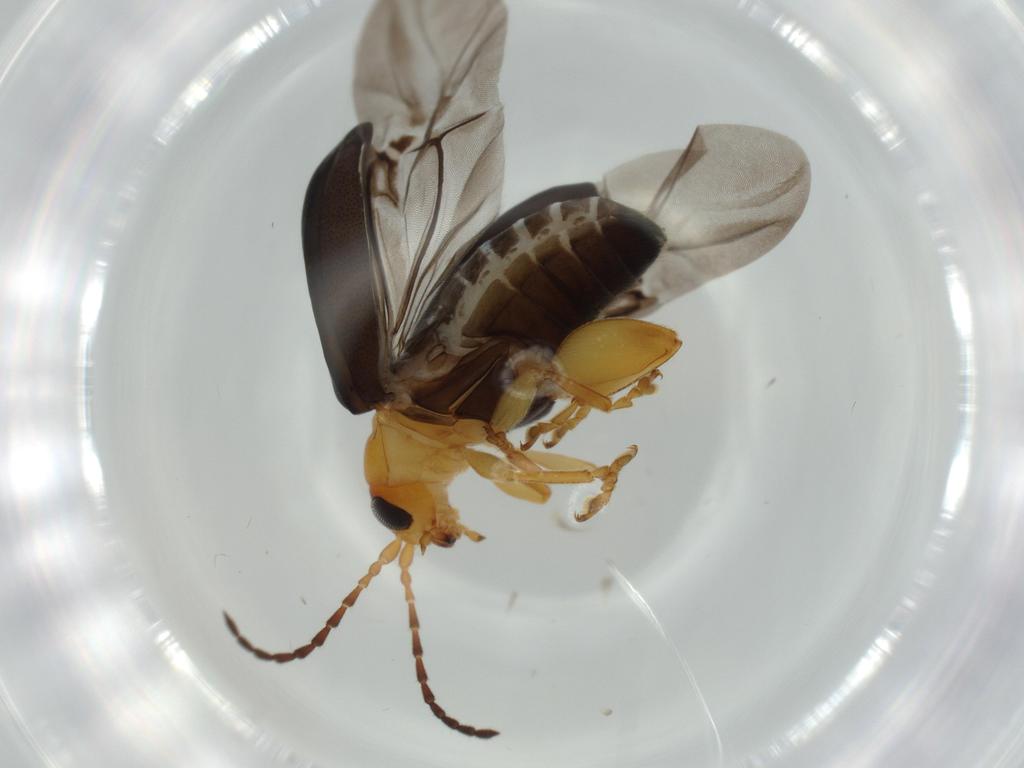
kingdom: Animalia
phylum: Arthropoda
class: Insecta
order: Coleoptera
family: Chrysomelidae
